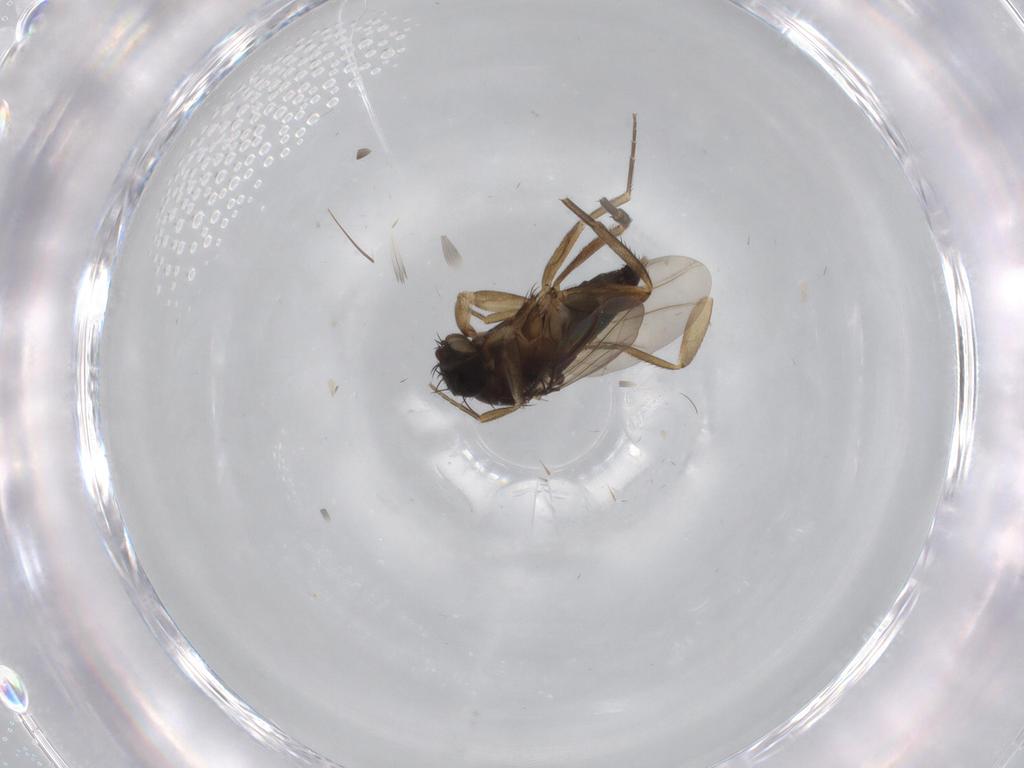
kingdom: Animalia
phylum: Arthropoda
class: Insecta
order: Diptera
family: Phoridae
